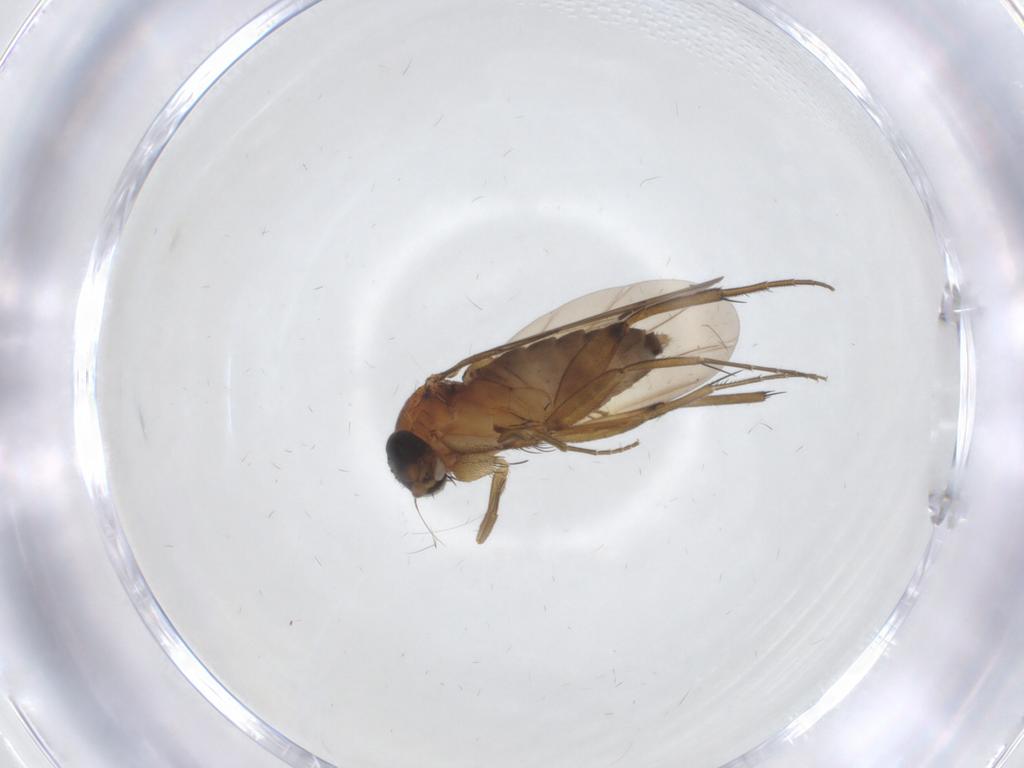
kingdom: Animalia
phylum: Arthropoda
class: Insecta
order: Diptera
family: Phoridae
